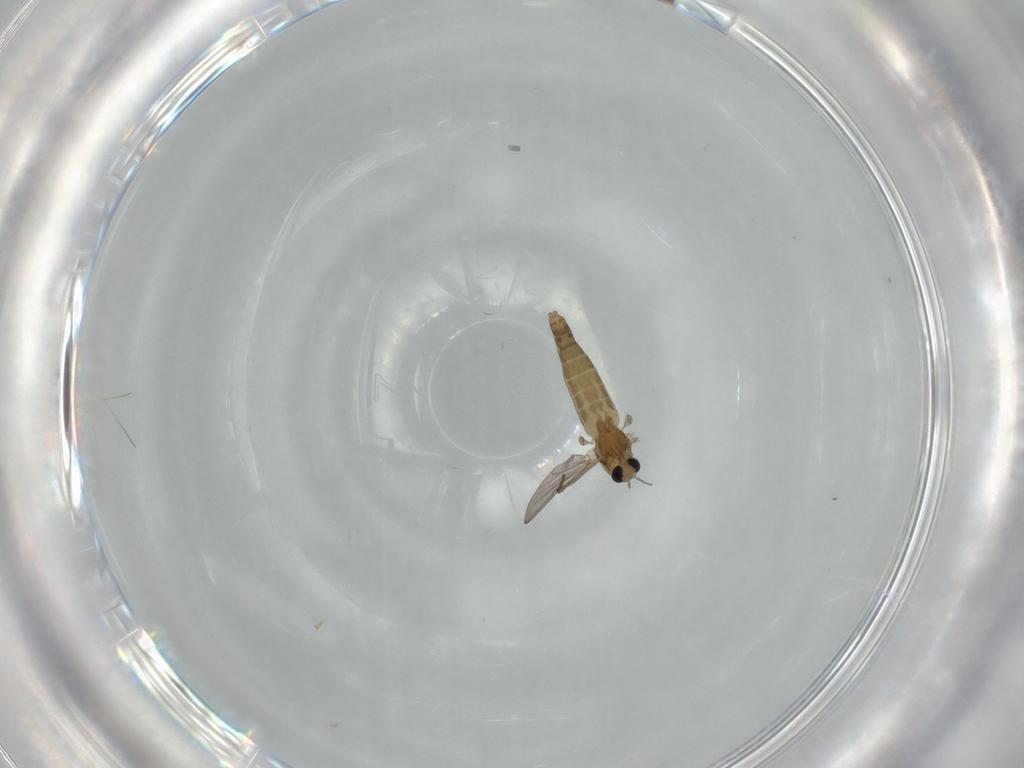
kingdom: Animalia
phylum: Arthropoda
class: Insecta
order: Diptera
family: Chironomidae
